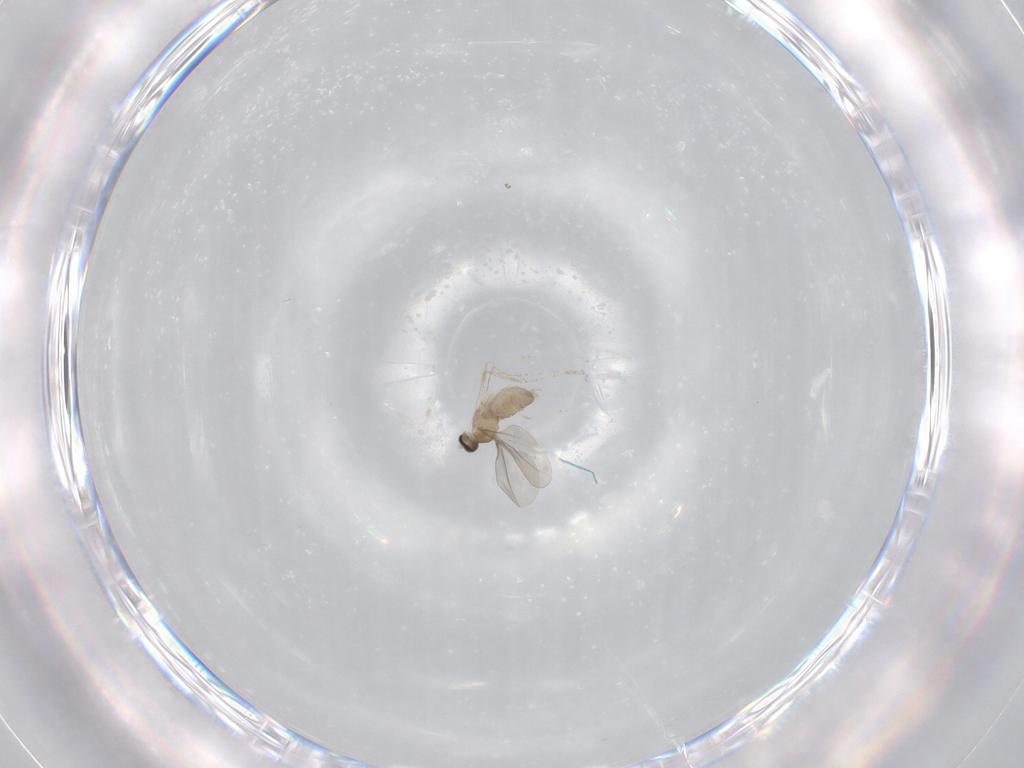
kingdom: Animalia
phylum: Arthropoda
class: Insecta
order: Diptera
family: Cecidomyiidae
